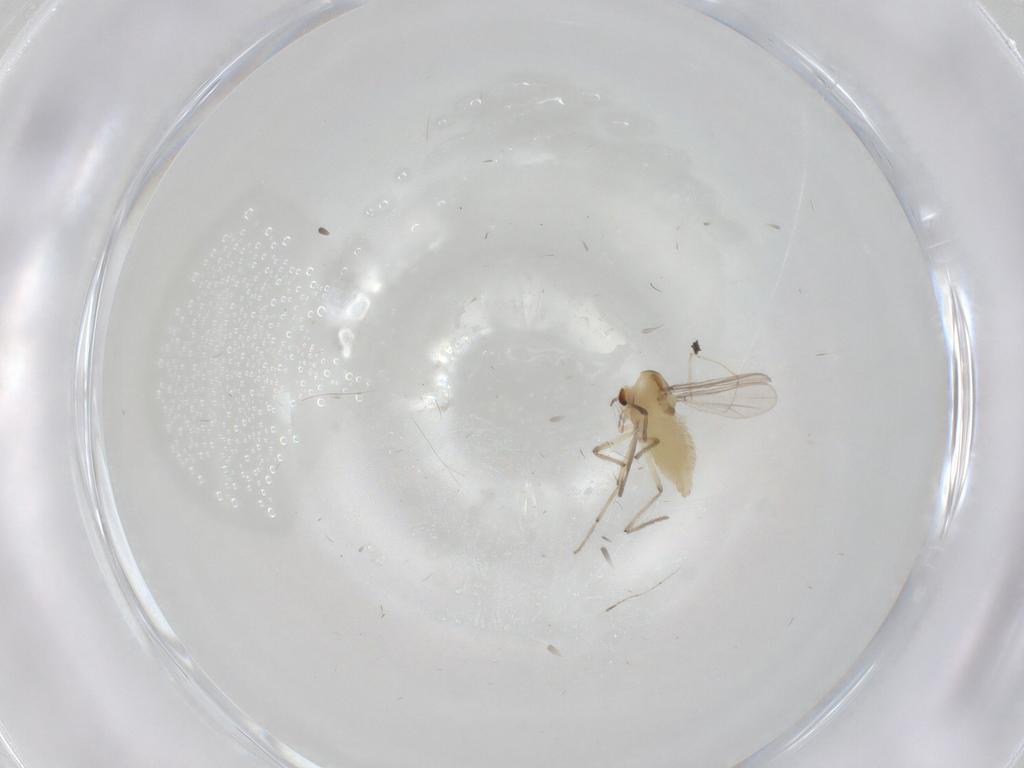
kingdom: Animalia
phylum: Arthropoda
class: Insecta
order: Diptera
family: Chironomidae
